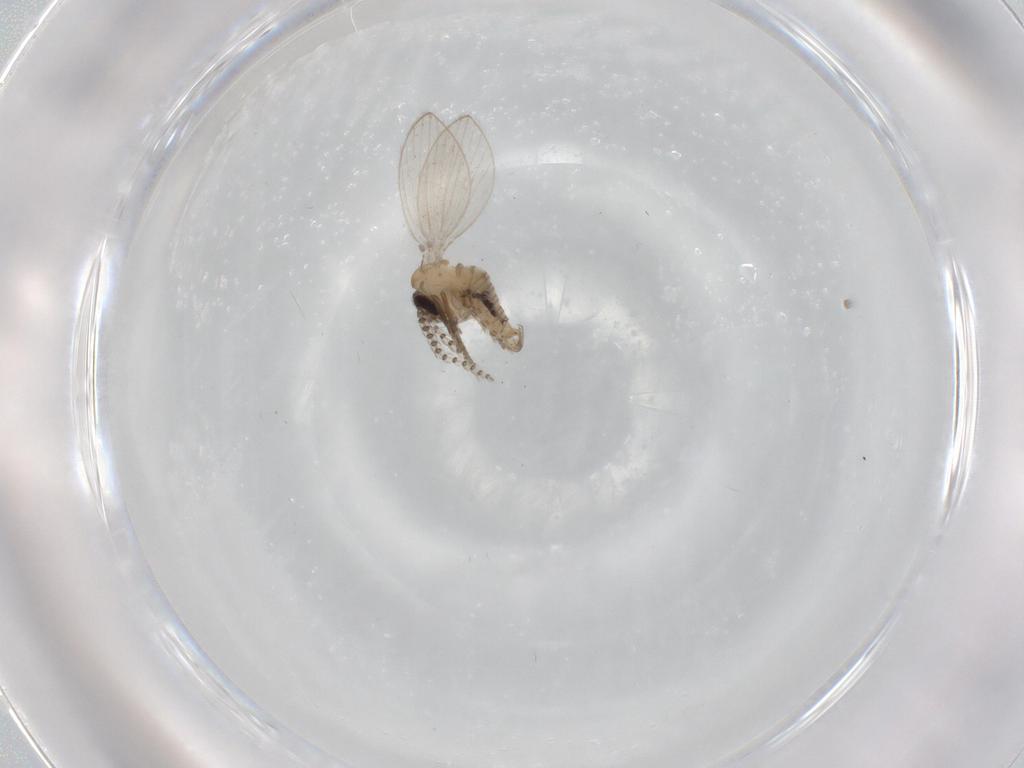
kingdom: Animalia
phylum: Arthropoda
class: Insecta
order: Diptera
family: Psychodidae
